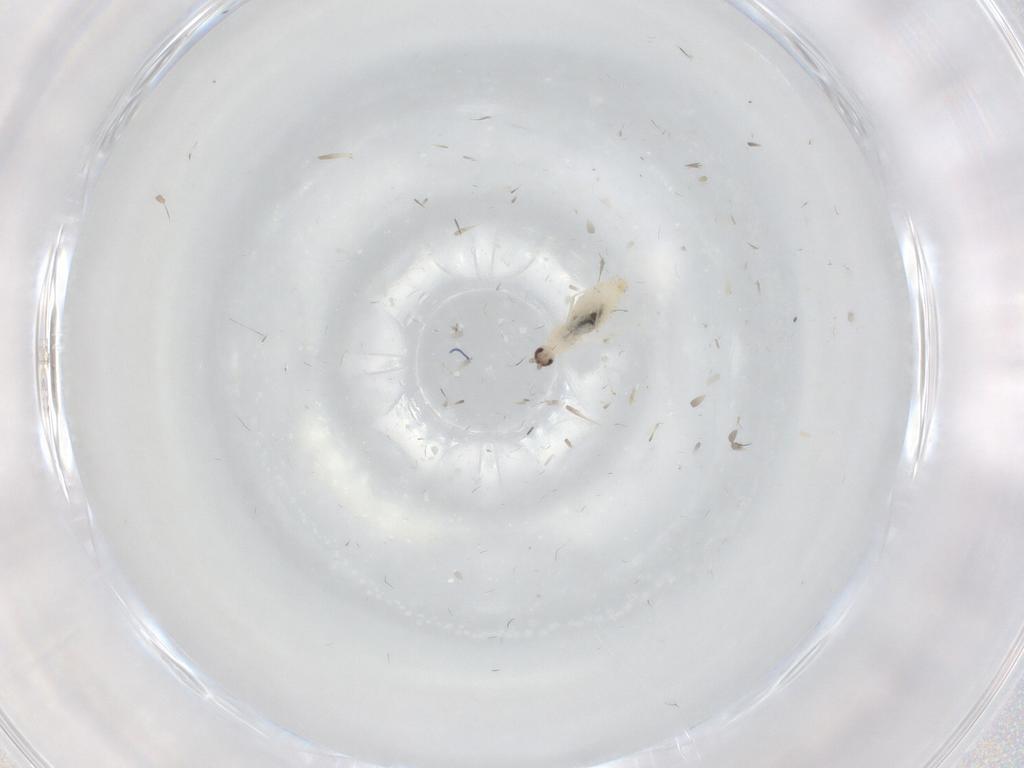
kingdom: Animalia
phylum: Arthropoda
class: Insecta
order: Diptera
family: Cecidomyiidae
